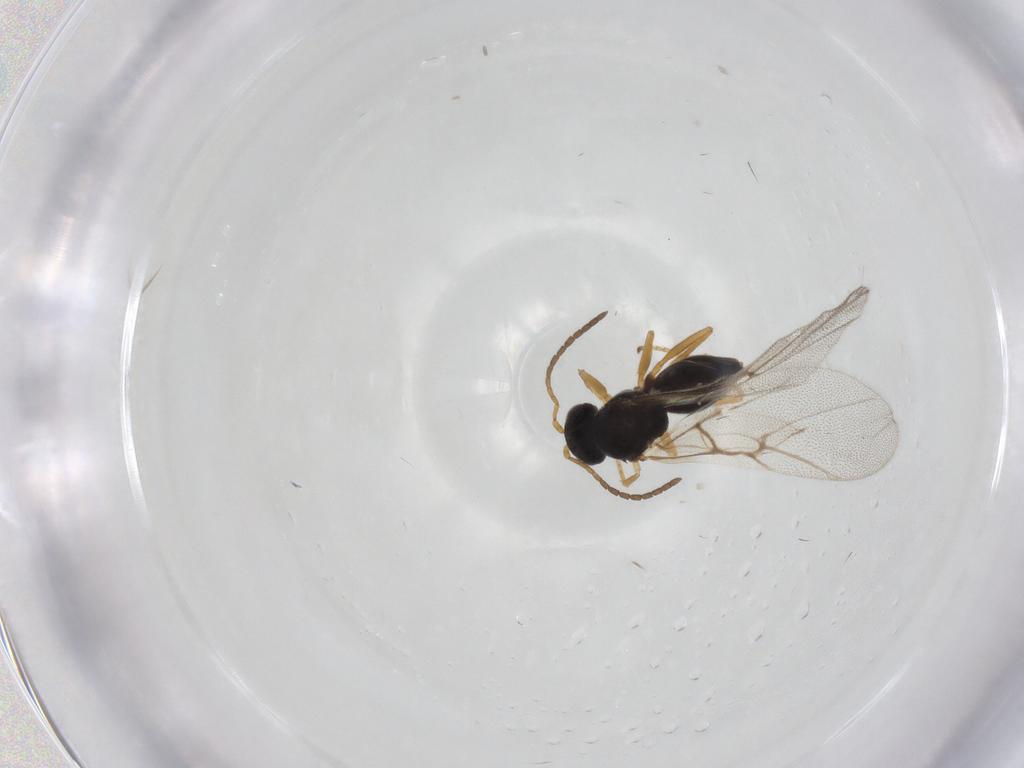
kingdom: Animalia
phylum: Arthropoda
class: Insecta
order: Hymenoptera
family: Cynipidae
